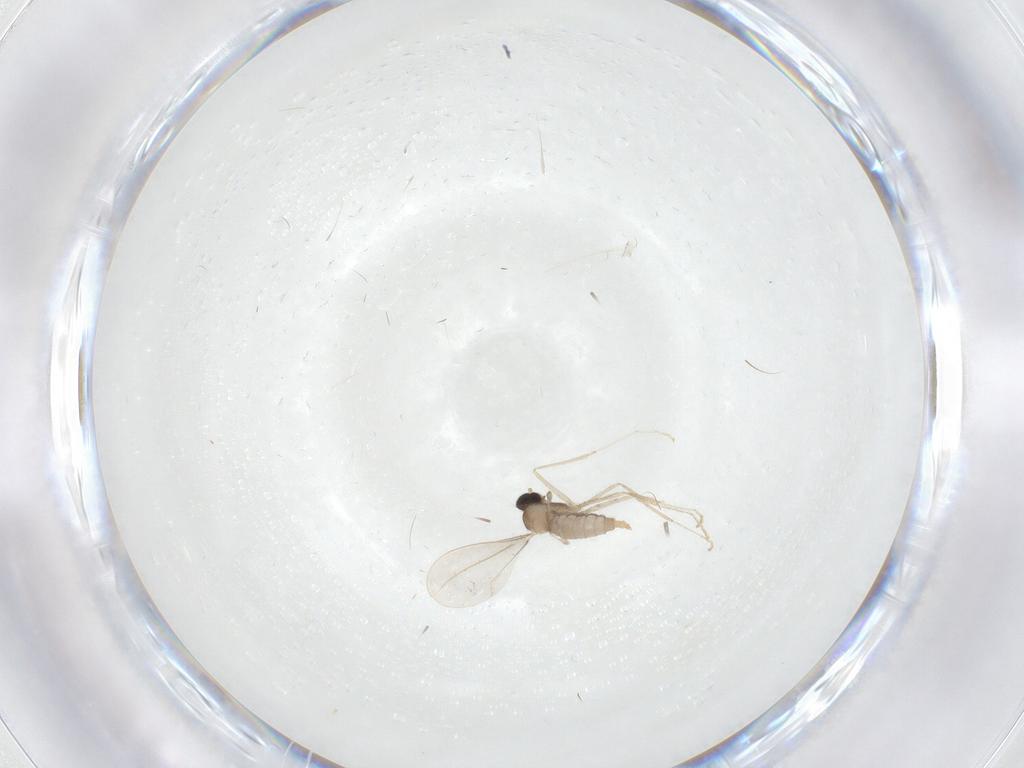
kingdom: Animalia
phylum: Arthropoda
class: Insecta
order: Diptera
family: Cecidomyiidae
